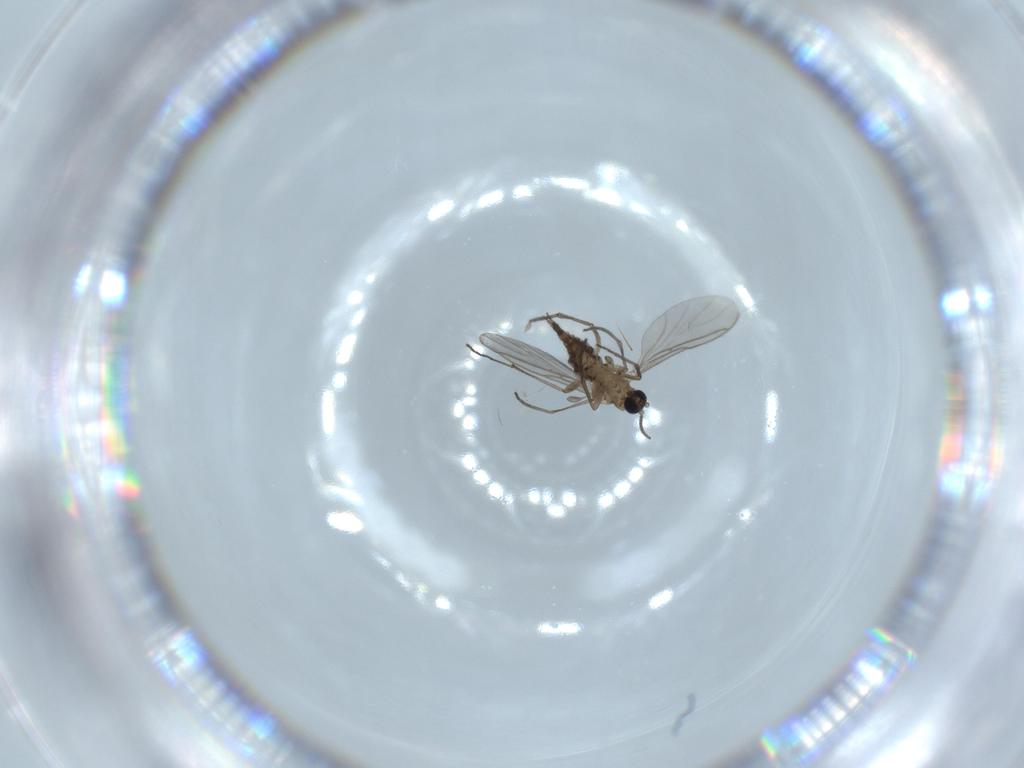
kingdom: Animalia
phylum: Arthropoda
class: Insecta
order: Diptera
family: Sciaridae
